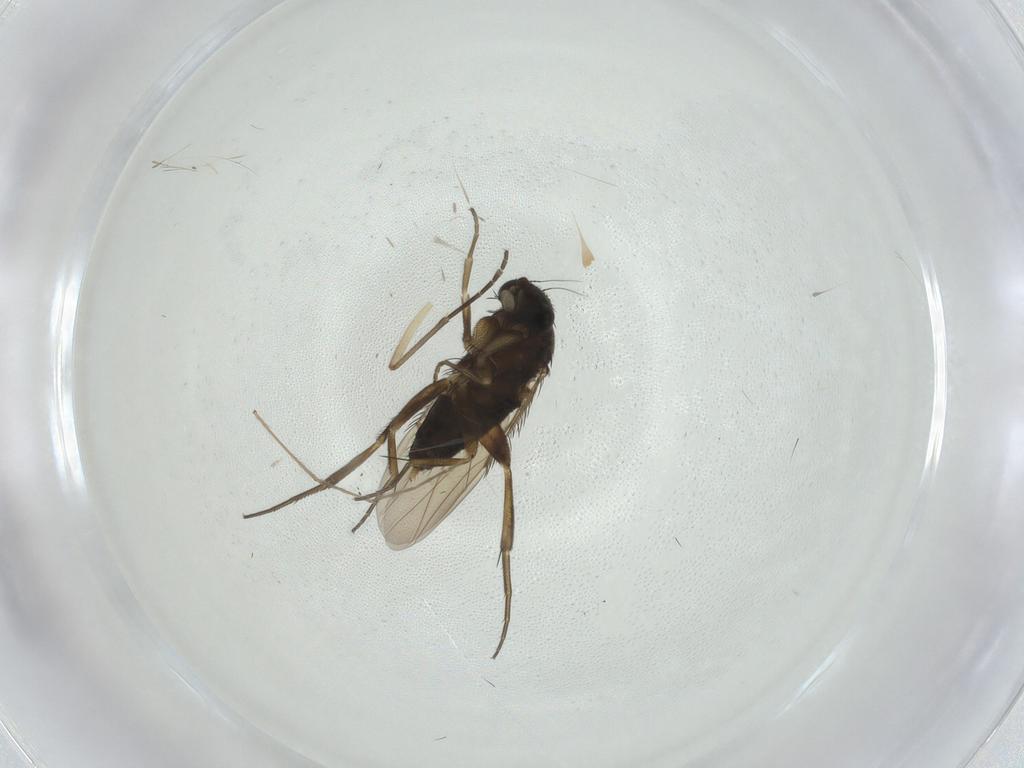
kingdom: Animalia
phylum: Arthropoda
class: Insecta
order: Diptera
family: Phoridae
